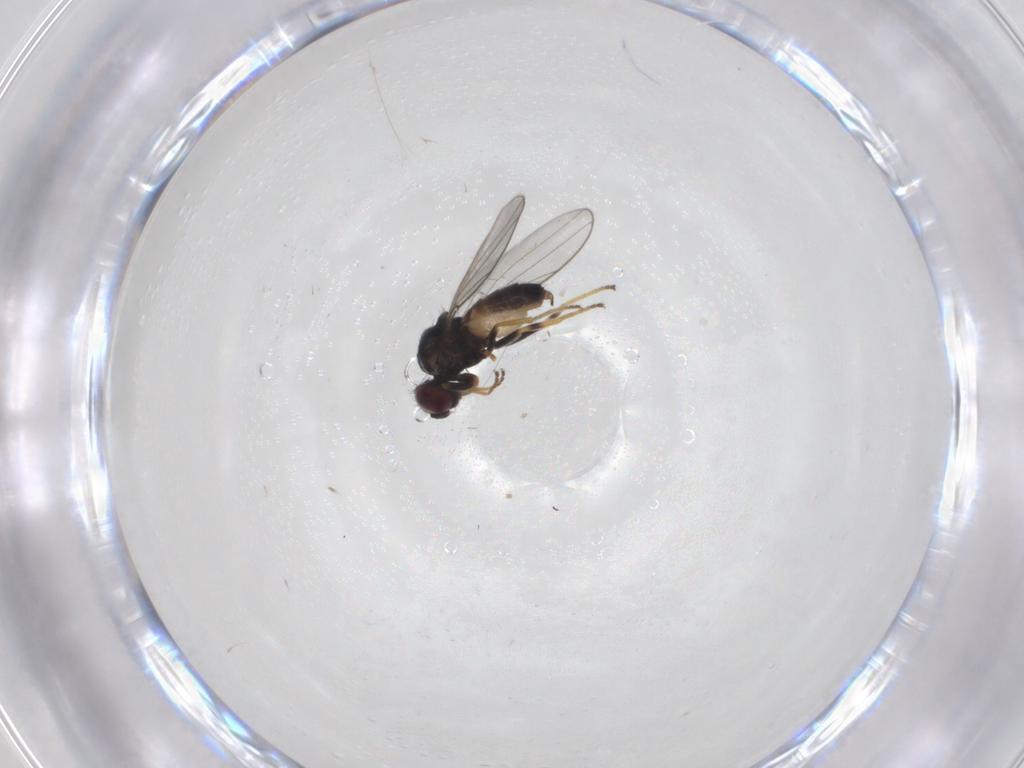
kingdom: Animalia
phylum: Arthropoda
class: Insecta
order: Diptera
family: Chloropidae
